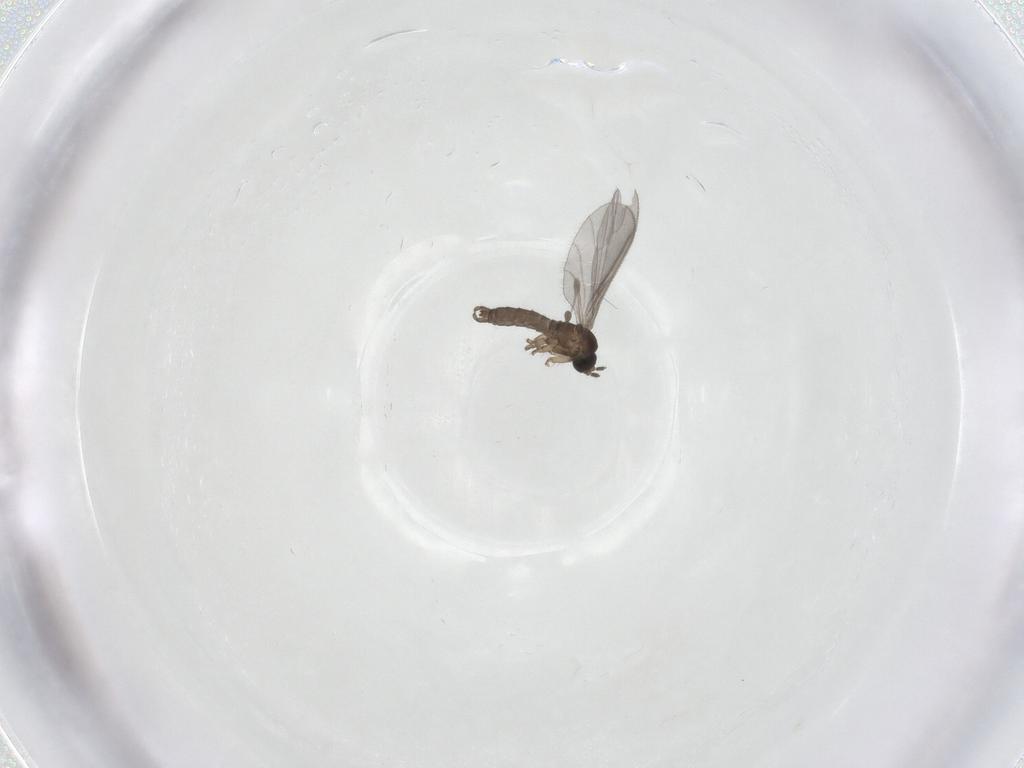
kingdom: Animalia
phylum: Arthropoda
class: Insecta
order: Diptera
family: Sciaridae
